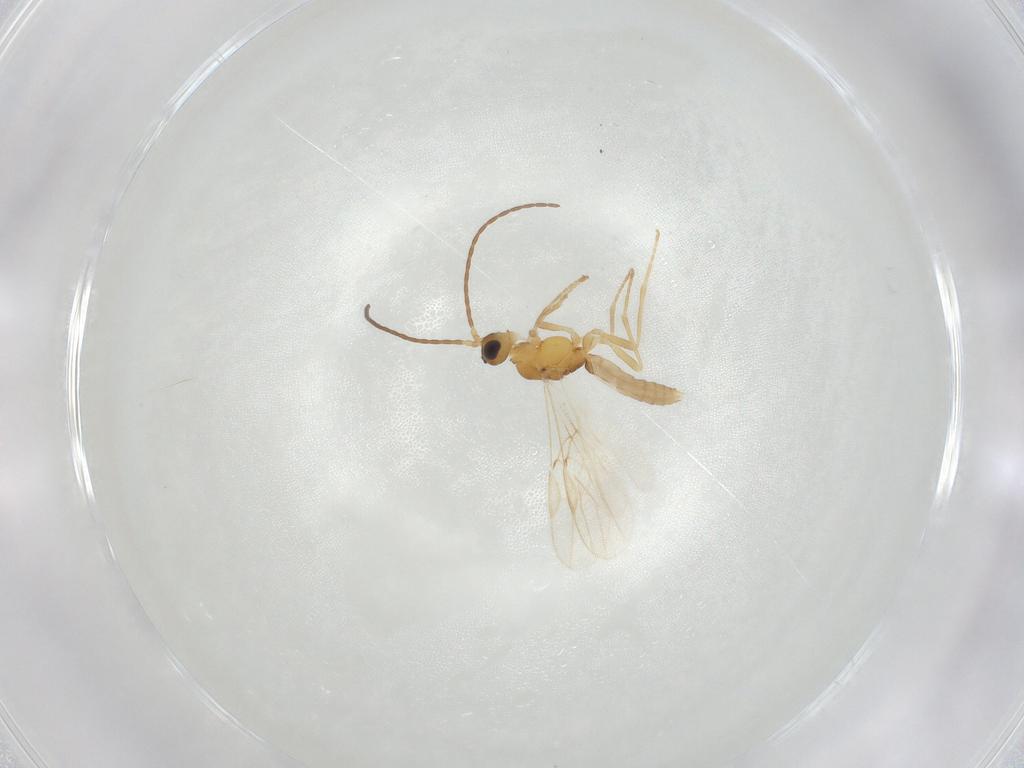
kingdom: Animalia
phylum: Arthropoda
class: Insecta
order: Hymenoptera
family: Braconidae
